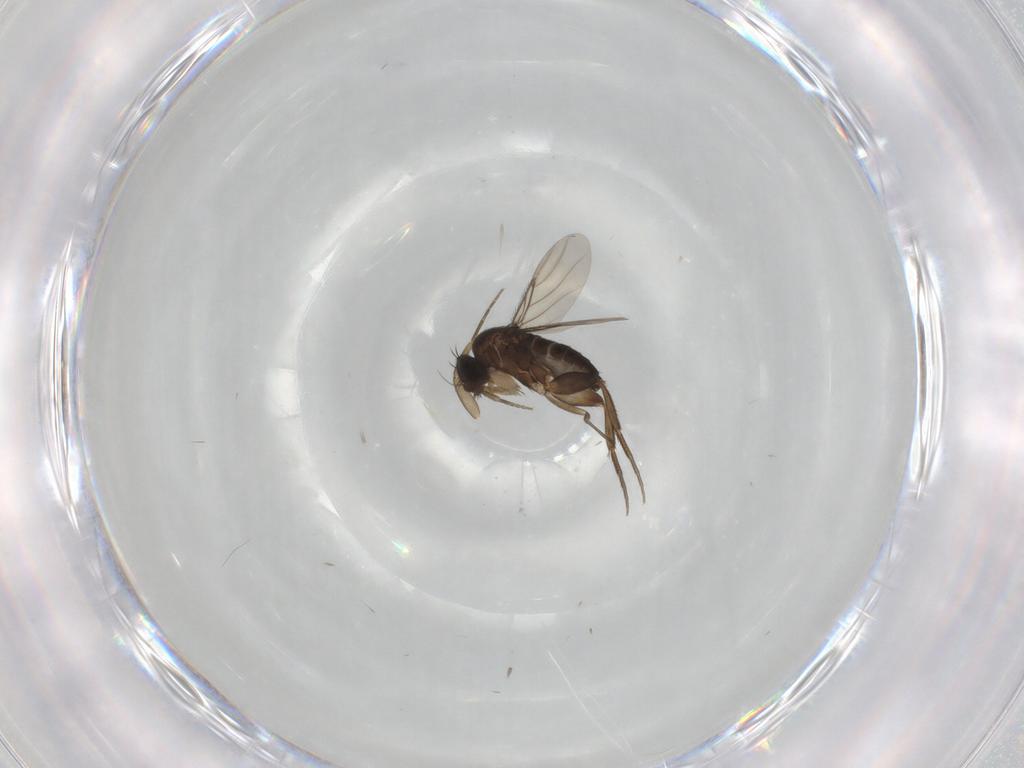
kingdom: Animalia
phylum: Arthropoda
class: Insecta
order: Diptera
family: Phoridae
